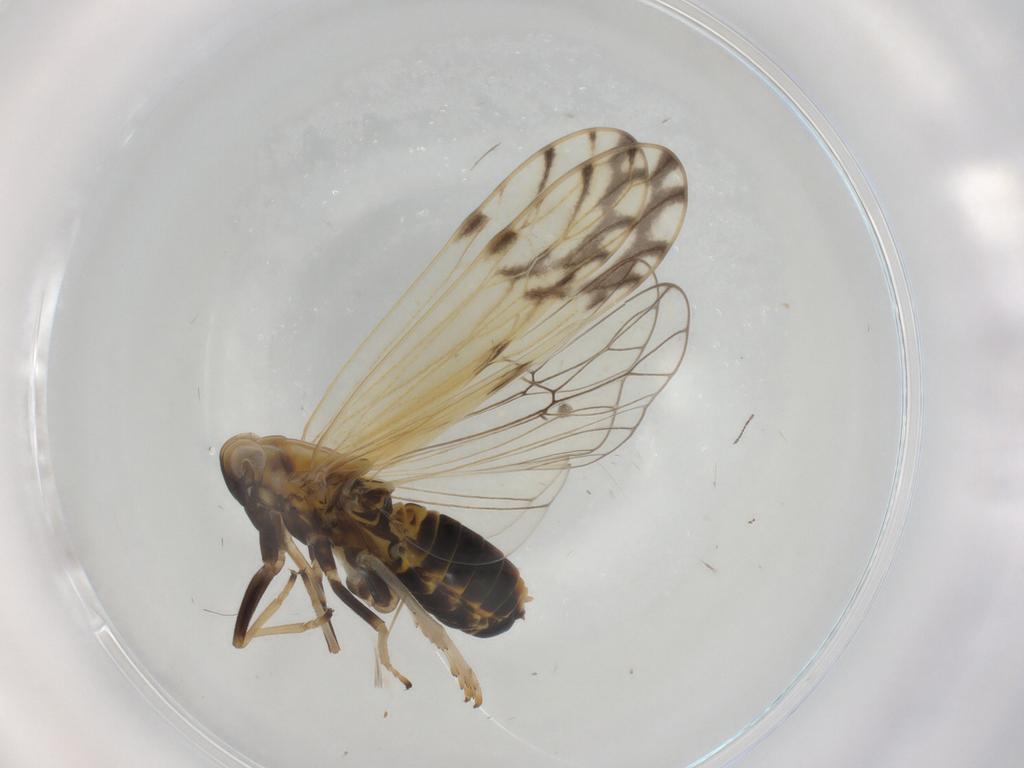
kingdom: Animalia
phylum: Arthropoda
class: Insecta
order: Hemiptera
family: Delphacidae
